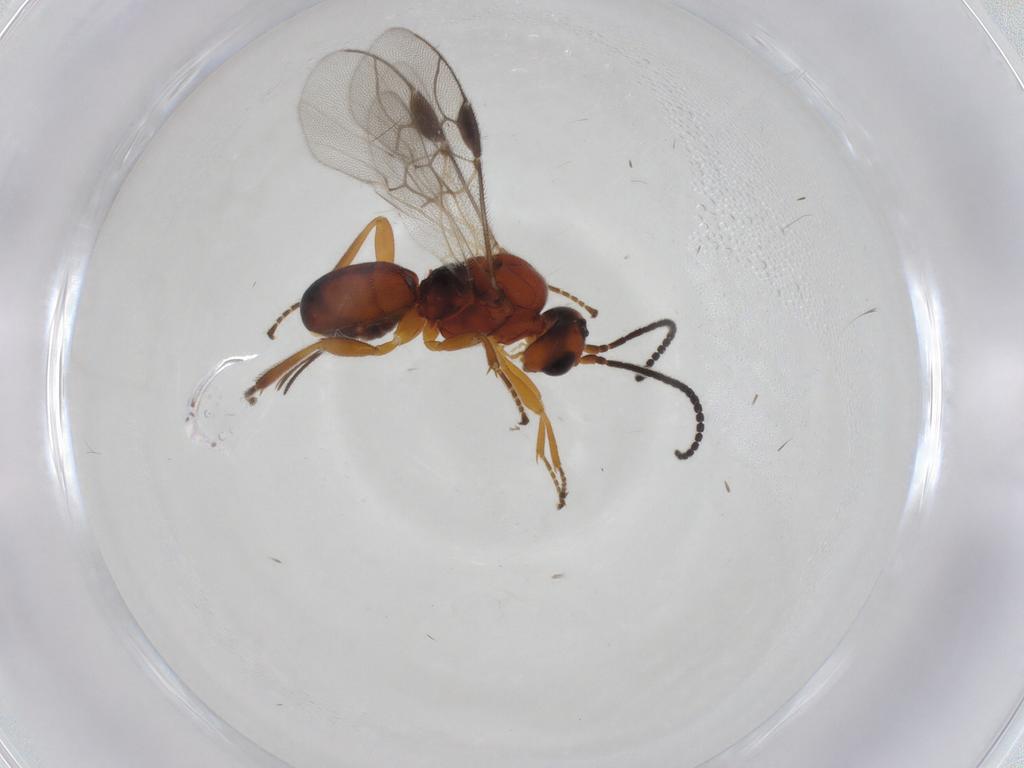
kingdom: Animalia
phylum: Arthropoda
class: Insecta
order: Hymenoptera
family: Braconidae
